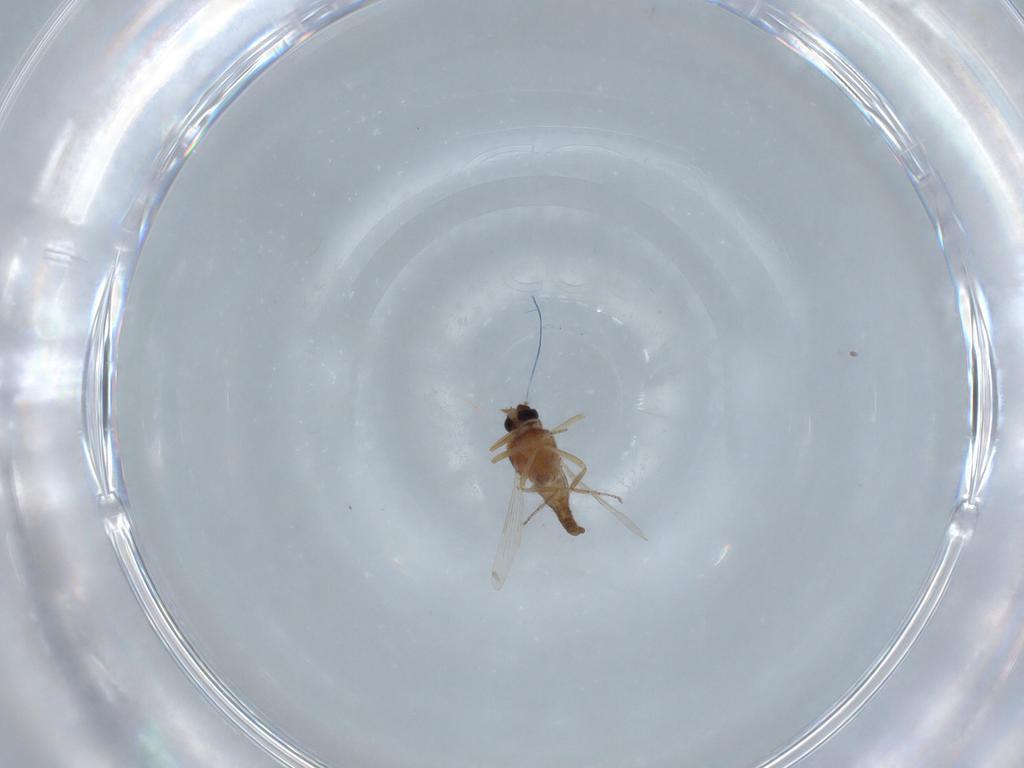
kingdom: Animalia
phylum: Arthropoda
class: Insecta
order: Diptera
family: Ceratopogonidae
